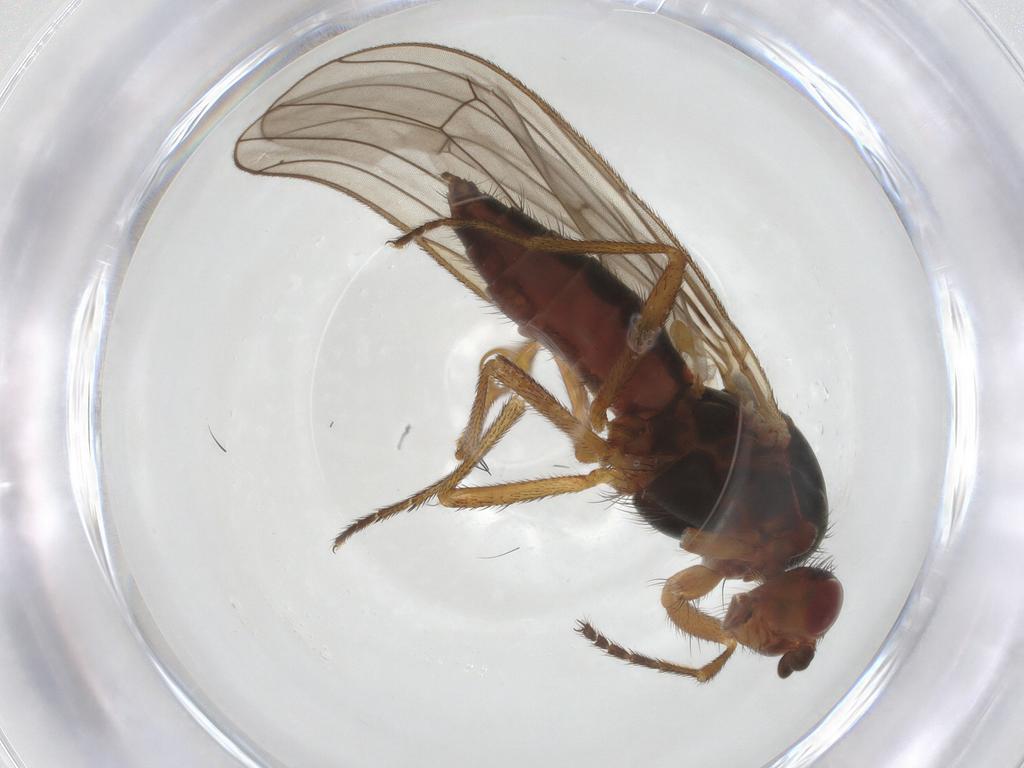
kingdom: Animalia
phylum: Arthropoda
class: Insecta
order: Diptera
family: Heleomyzidae
